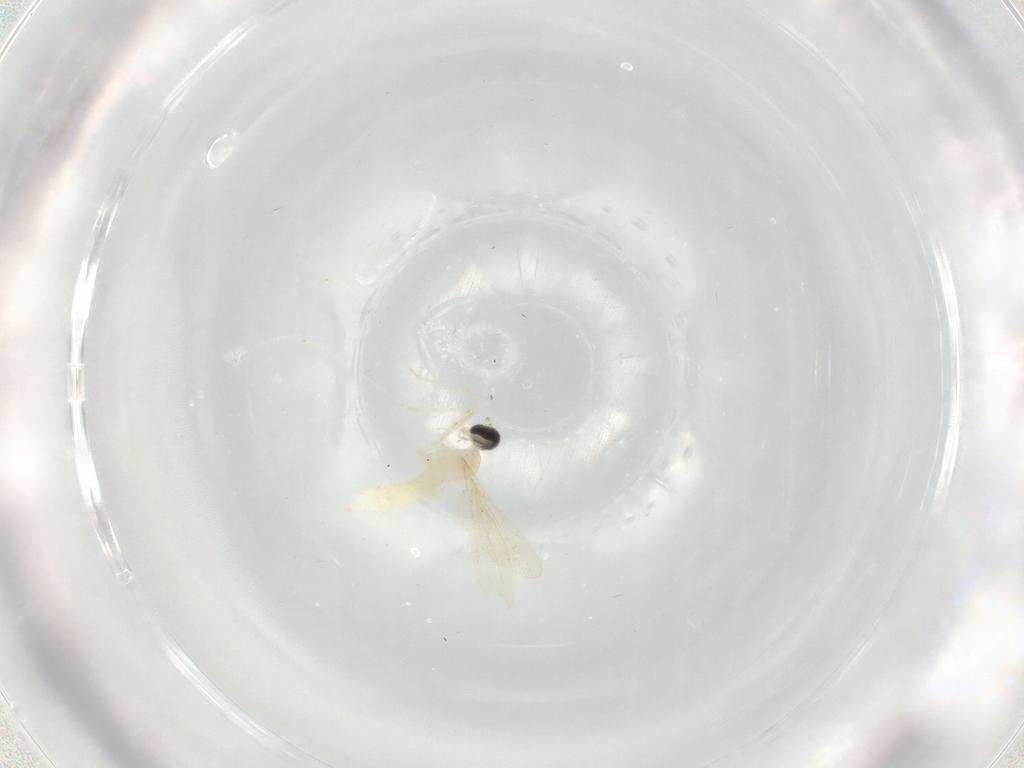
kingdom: Animalia
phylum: Arthropoda
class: Insecta
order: Diptera
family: Cecidomyiidae
